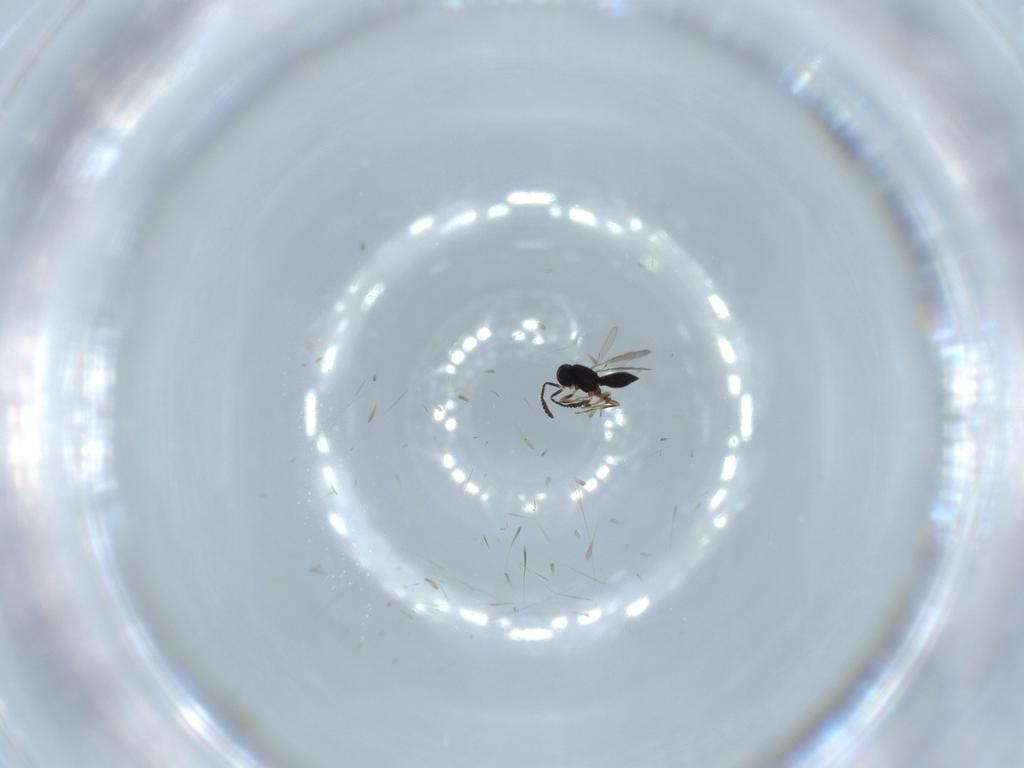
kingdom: Animalia
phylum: Arthropoda
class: Insecta
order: Hymenoptera
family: Scelionidae
